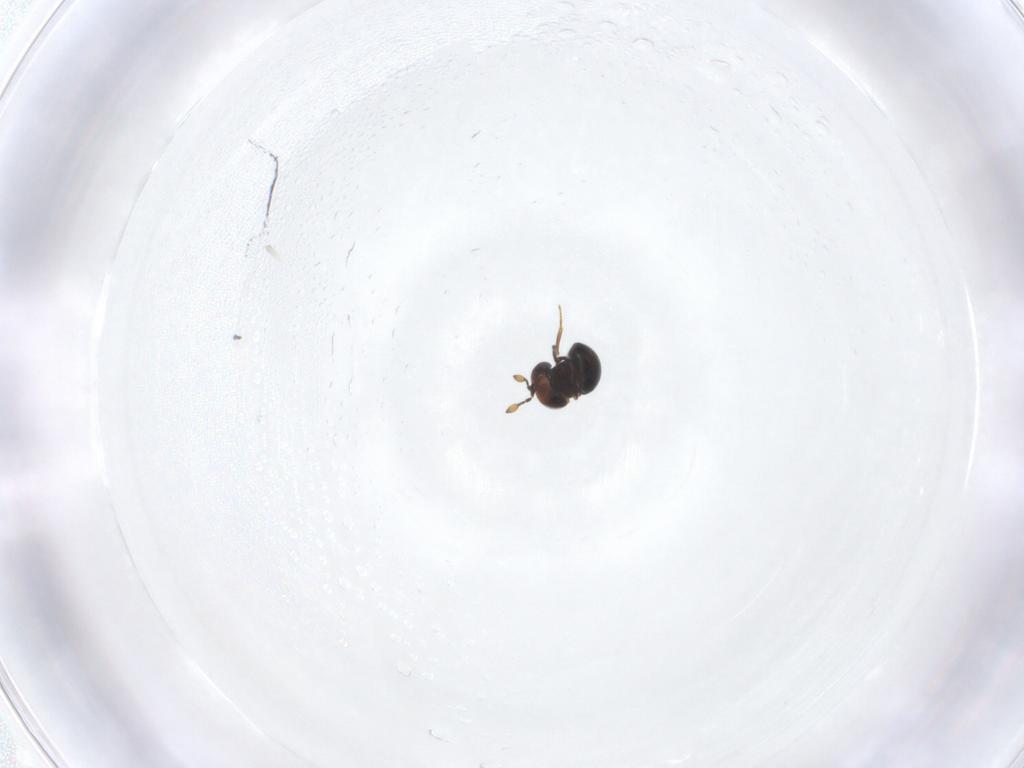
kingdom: Animalia
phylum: Arthropoda
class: Insecta
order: Hymenoptera
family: Scelionidae
